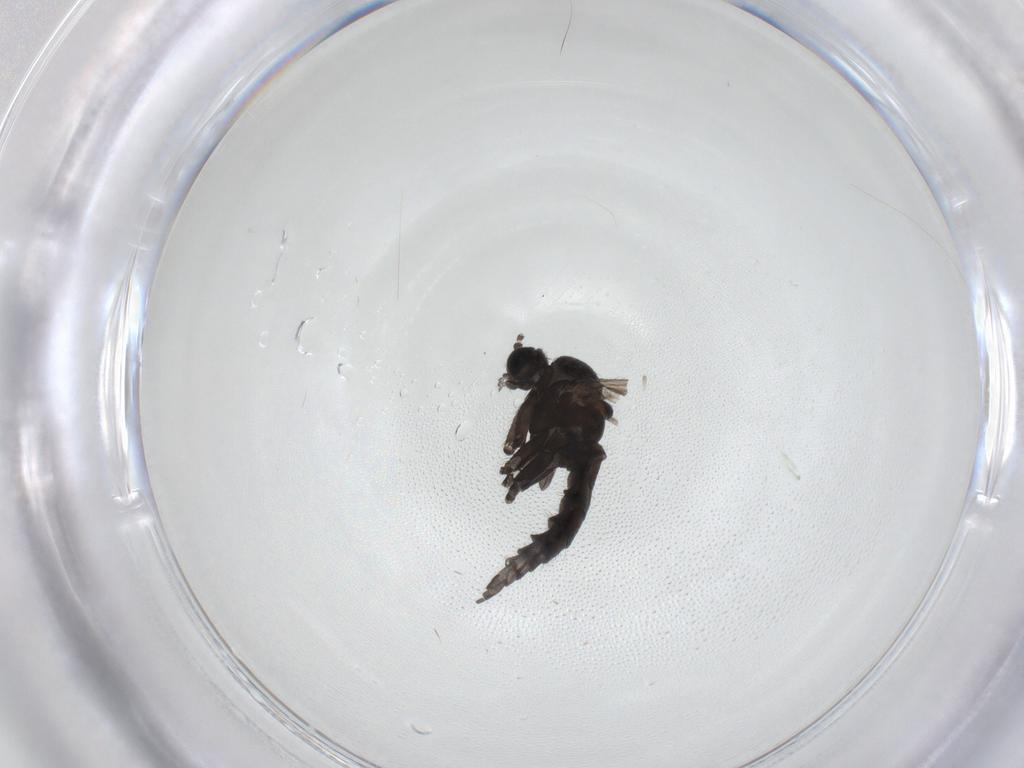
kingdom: Animalia
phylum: Arthropoda
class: Insecta
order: Diptera
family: Sciaridae
